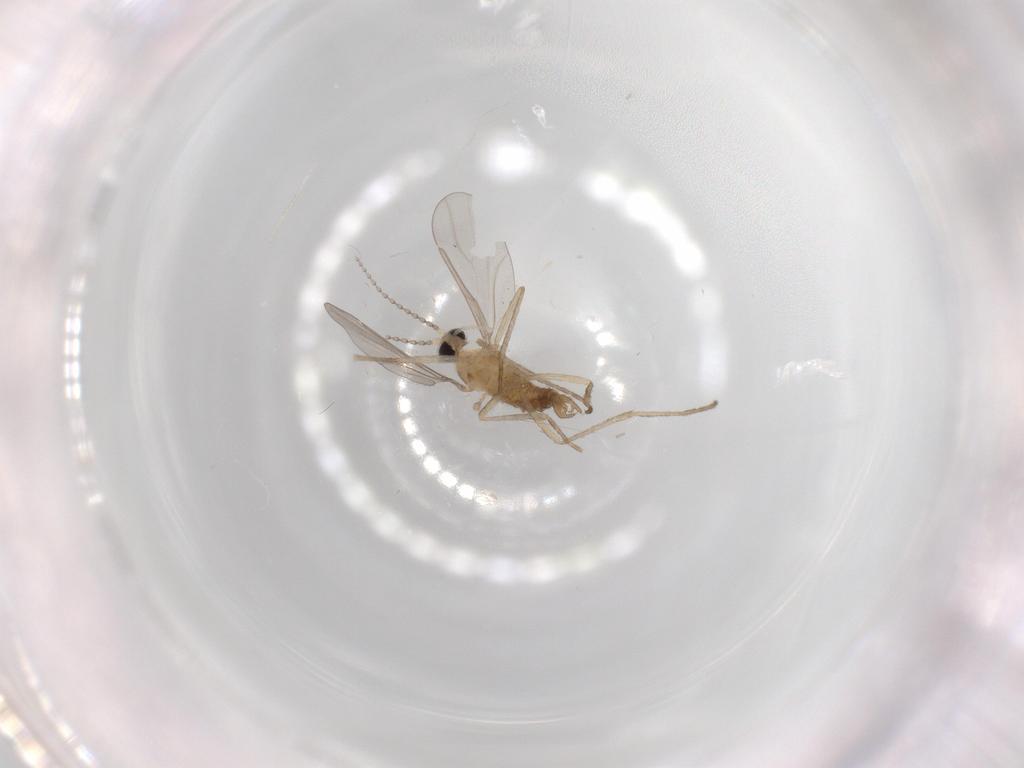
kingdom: Animalia
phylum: Arthropoda
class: Insecta
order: Diptera
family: Cecidomyiidae
